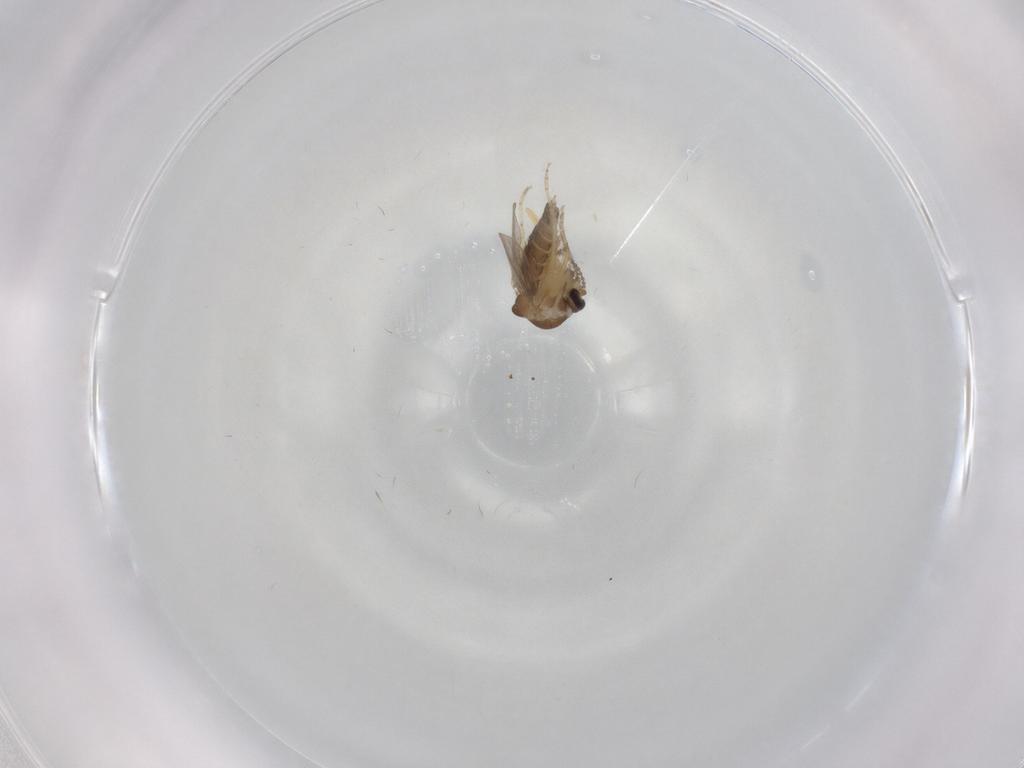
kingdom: Animalia
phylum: Arthropoda
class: Insecta
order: Diptera
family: Ceratopogonidae
